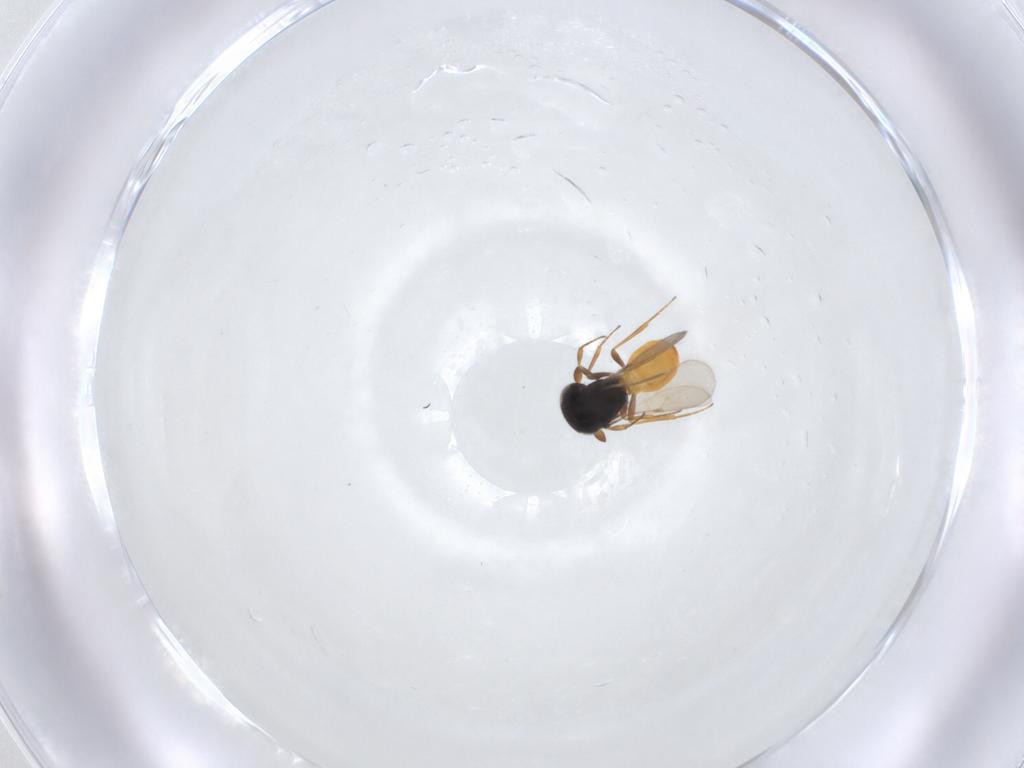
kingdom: Animalia
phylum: Arthropoda
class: Insecta
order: Hymenoptera
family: Scelionidae
